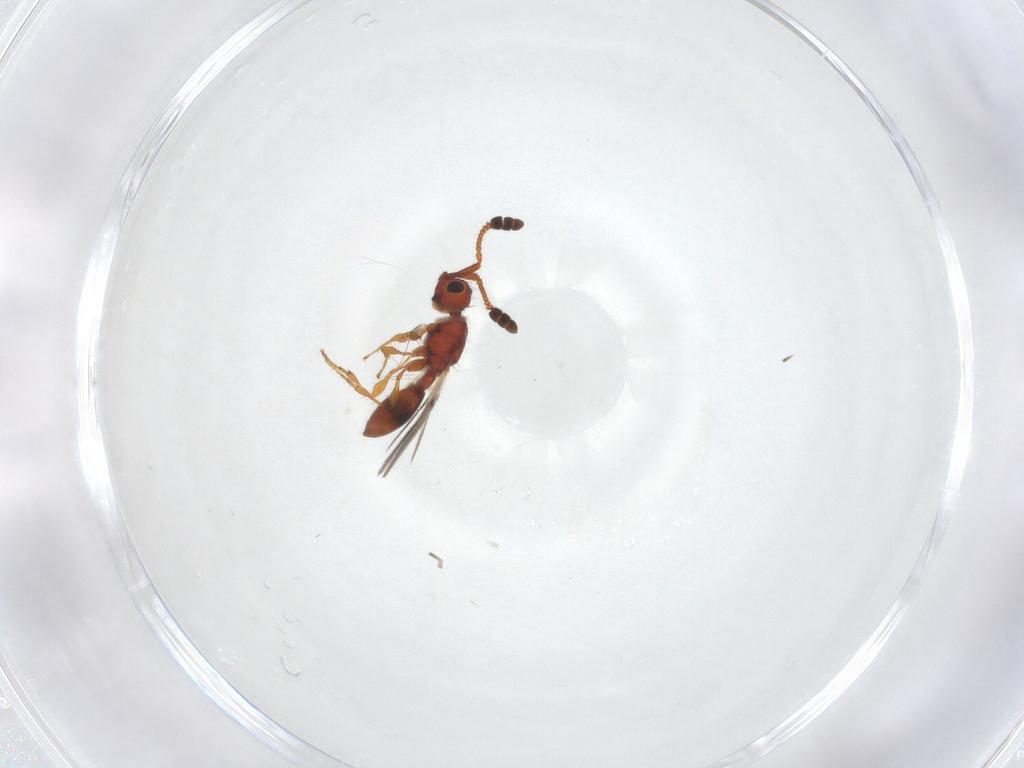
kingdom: Animalia
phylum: Arthropoda
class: Insecta
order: Hymenoptera
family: Diapriidae
